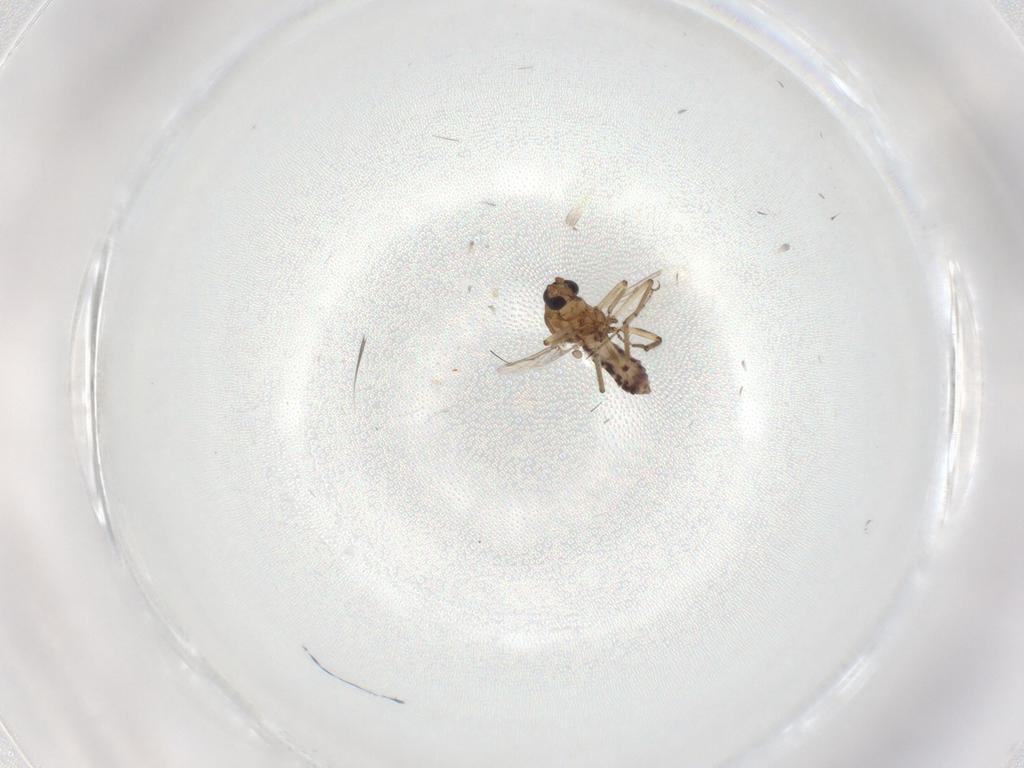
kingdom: Animalia
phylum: Arthropoda
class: Insecta
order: Diptera
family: Ceratopogonidae
